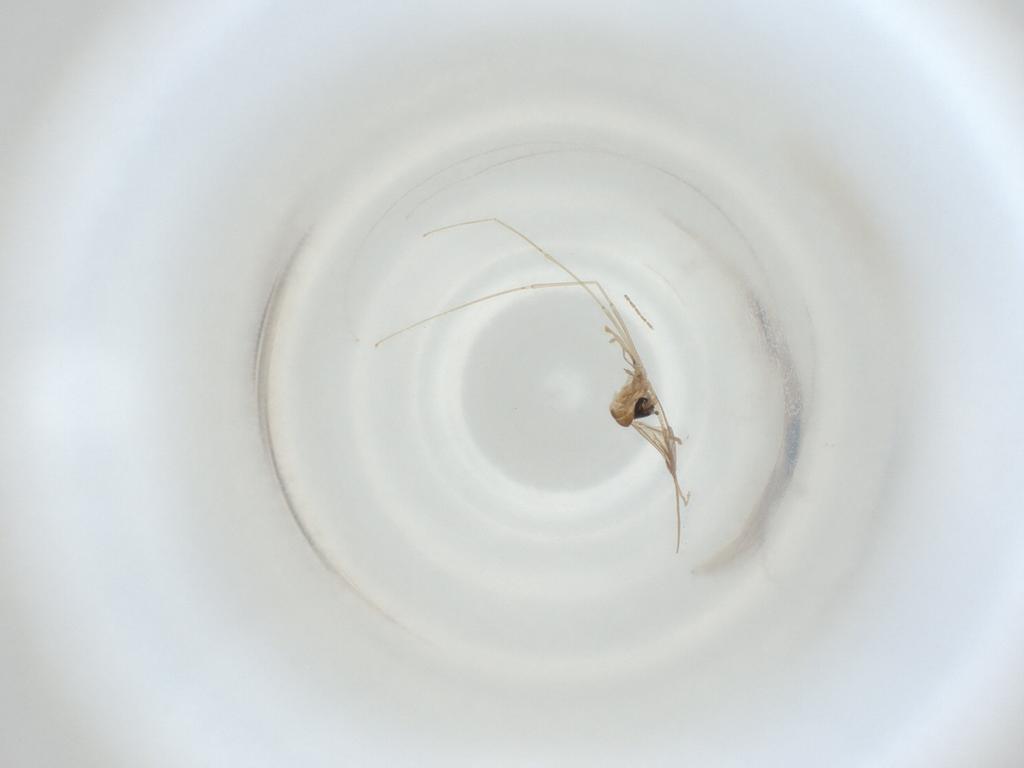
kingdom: Animalia
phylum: Arthropoda
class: Insecta
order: Diptera
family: Cecidomyiidae
